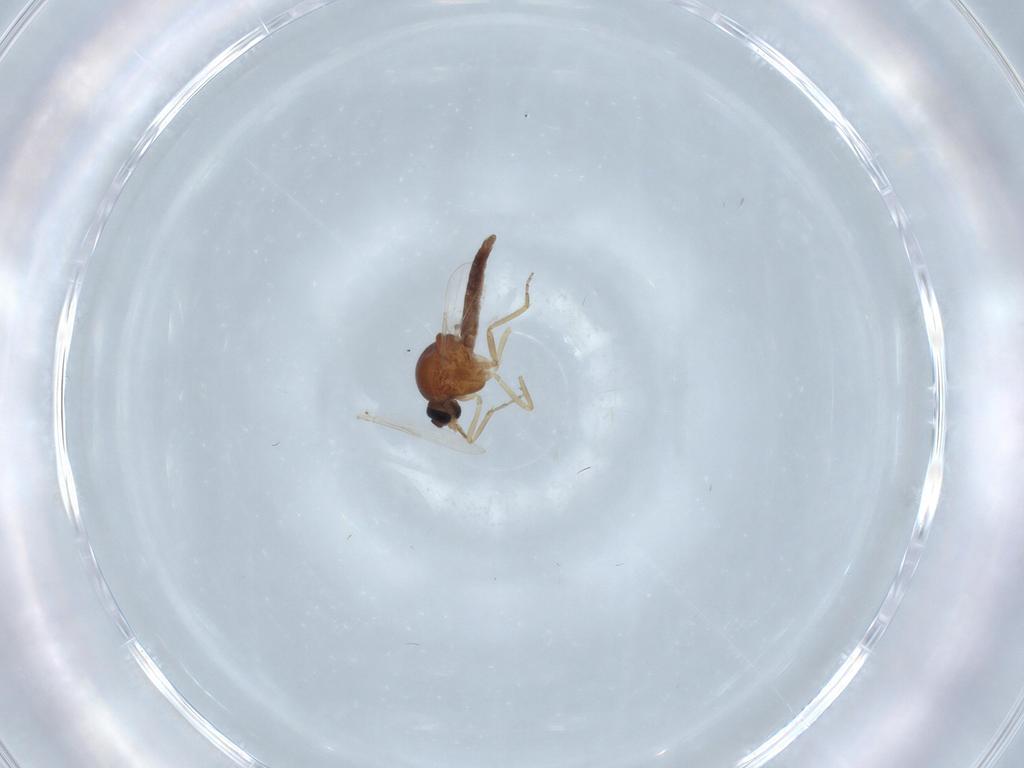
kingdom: Animalia
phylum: Arthropoda
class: Insecta
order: Diptera
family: Ceratopogonidae
